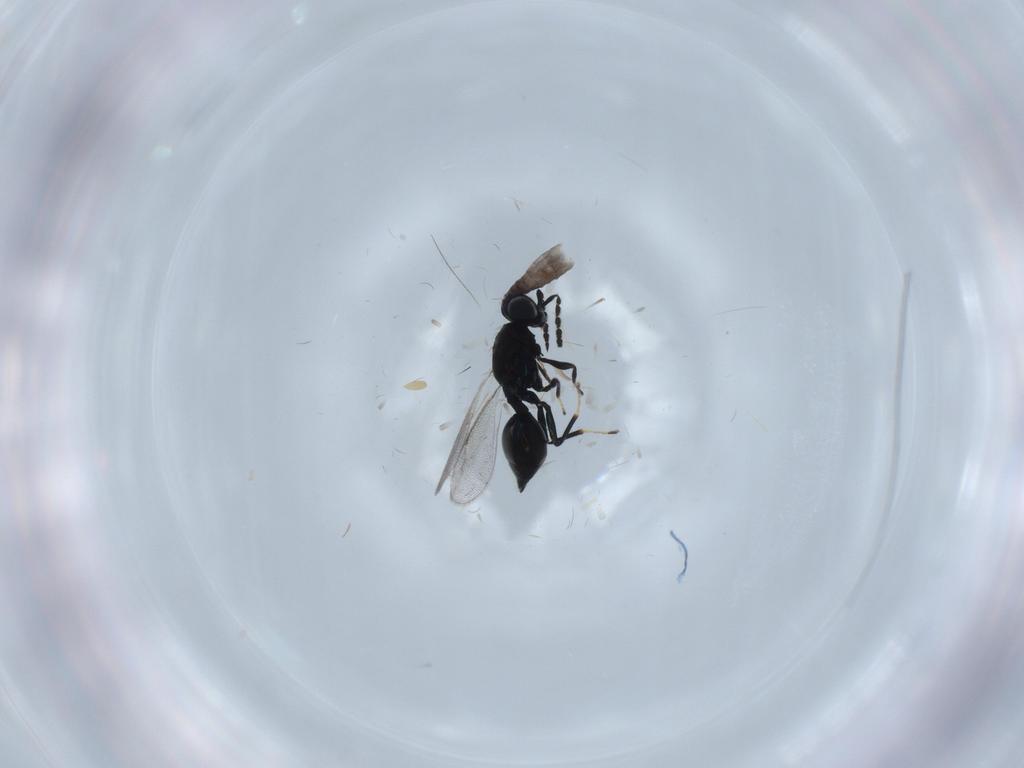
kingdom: Animalia
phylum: Arthropoda
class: Insecta
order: Hymenoptera
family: Eulophidae
